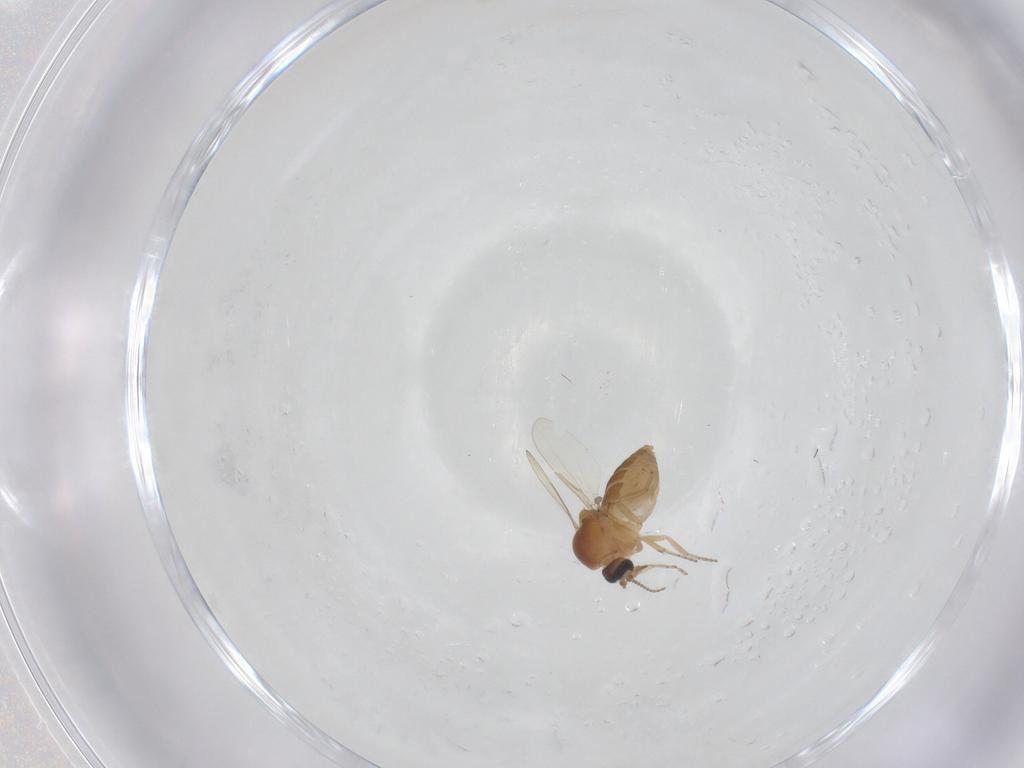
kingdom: Animalia
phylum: Arthropoda
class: Insecta
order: Diptera
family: Ceratopogonidae
